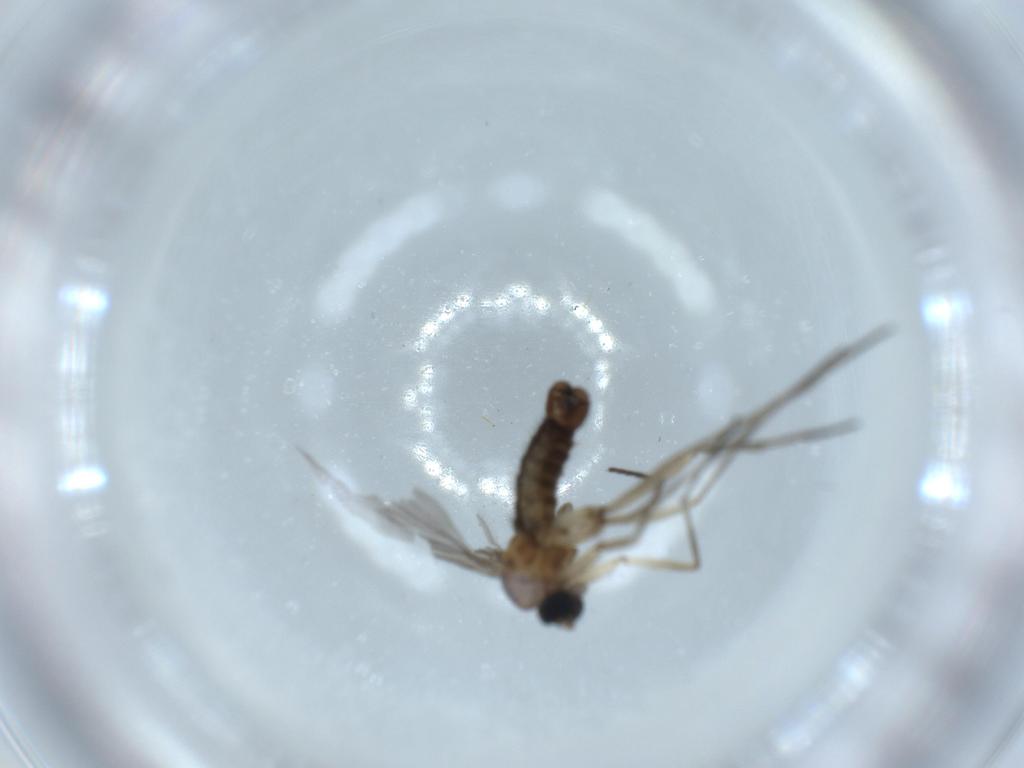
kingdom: Animalia
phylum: Arthropoda
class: Insecta
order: Diptera
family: Sciaridae
